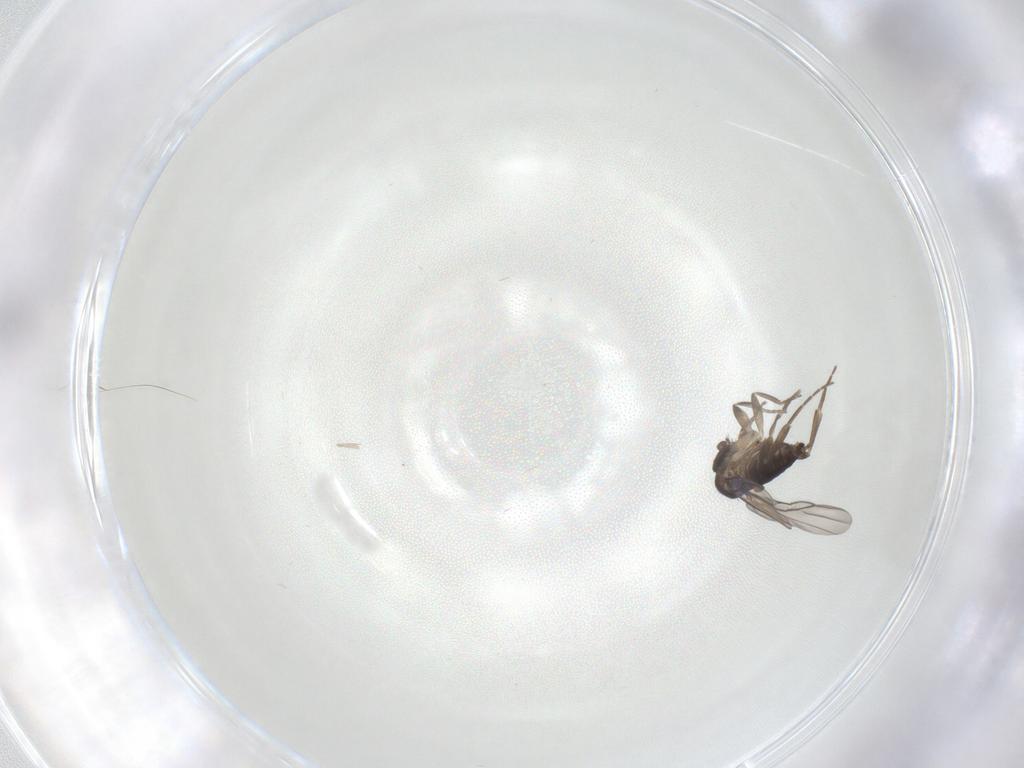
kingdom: Animalia
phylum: Arthropoda
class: Insecta
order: Diptera
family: Phoridae
